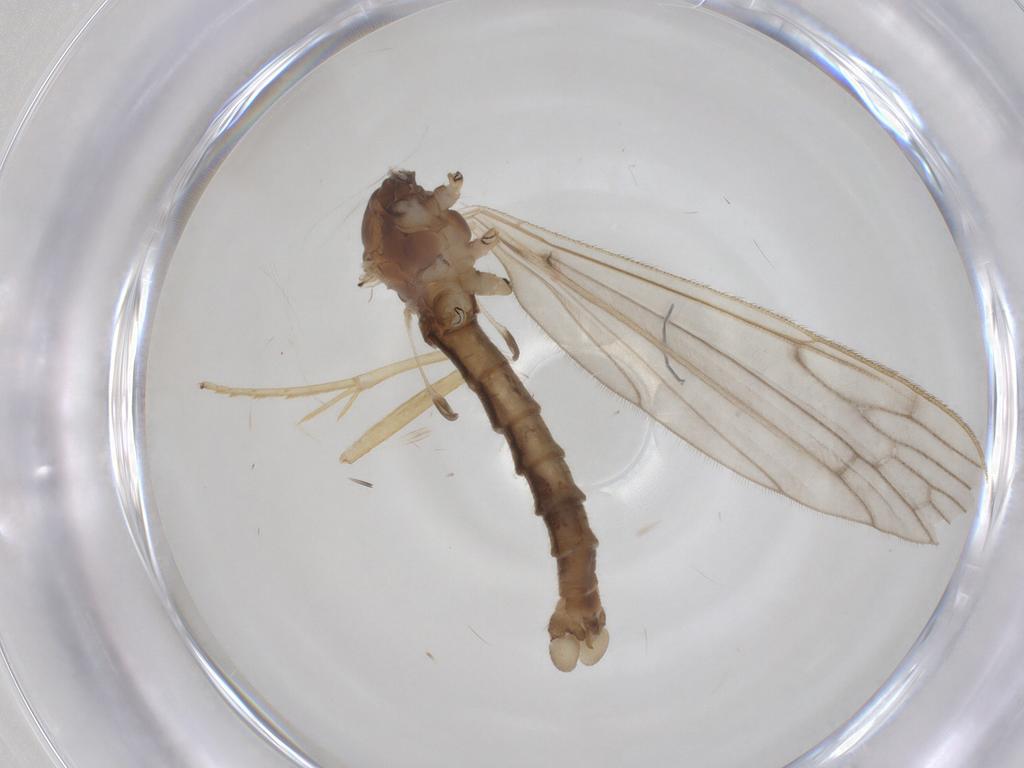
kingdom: Animalia
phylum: Arthropoda
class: Insecta
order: Diptera
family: Limoniidae
